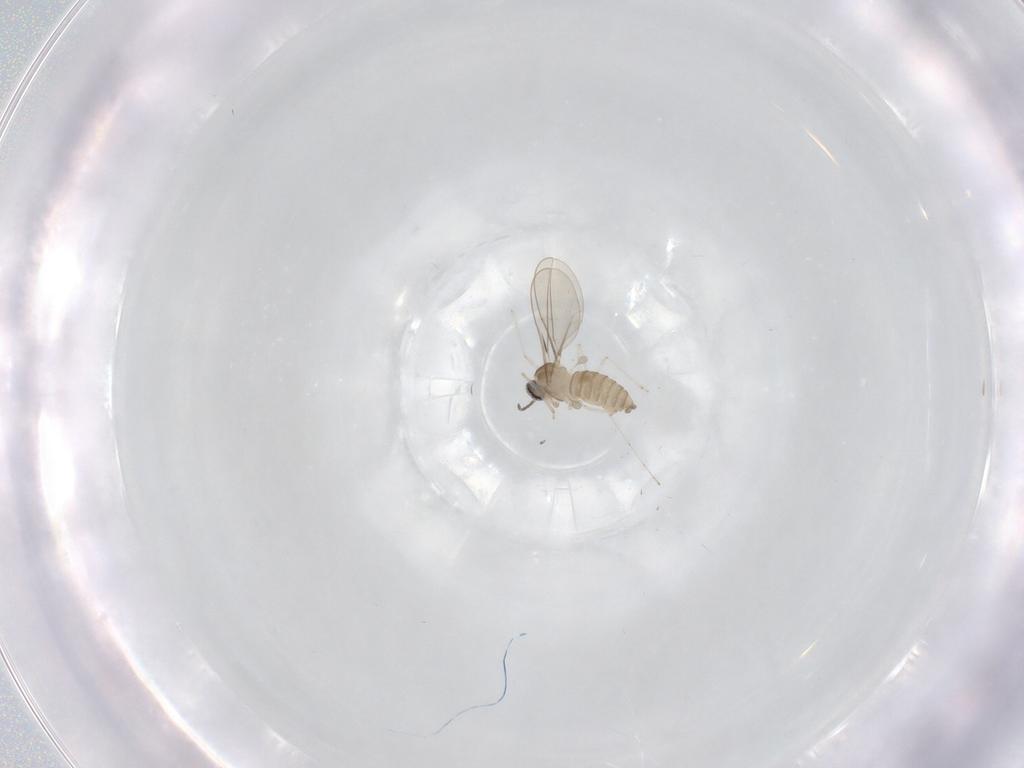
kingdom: Animalia
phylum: Arthropoda
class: Insecta
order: Diptera
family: Cecidomyiidae
